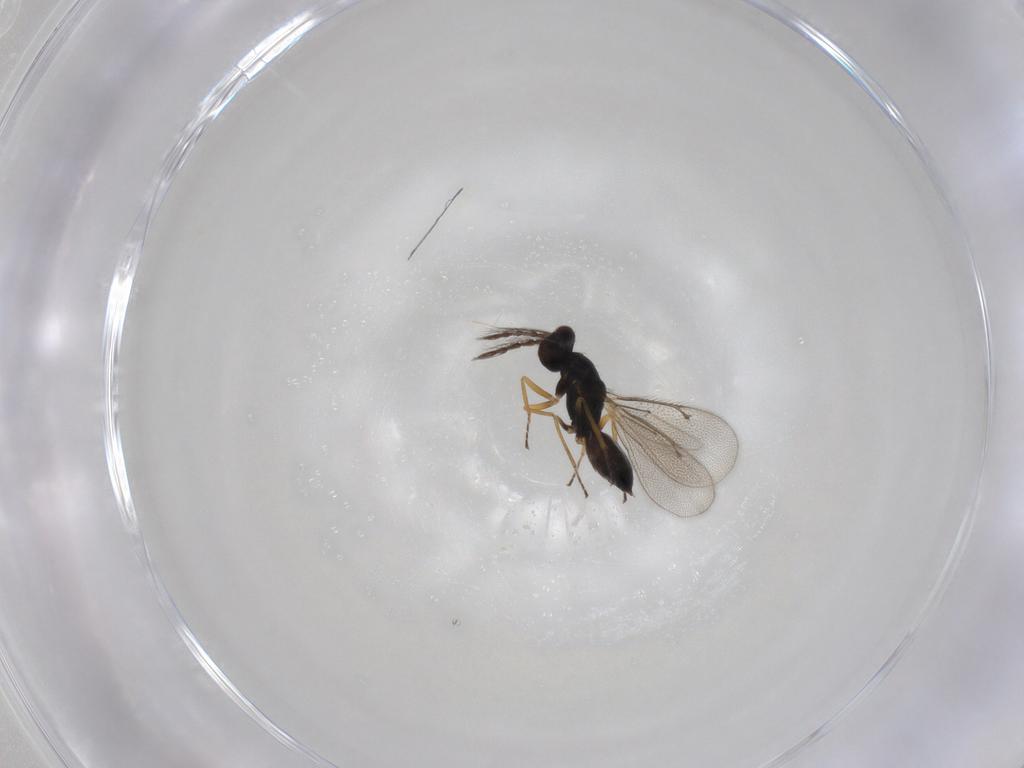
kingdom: Animalia
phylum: Arthropoda
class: Insecta
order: Hymenoptera
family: Eulophidae
